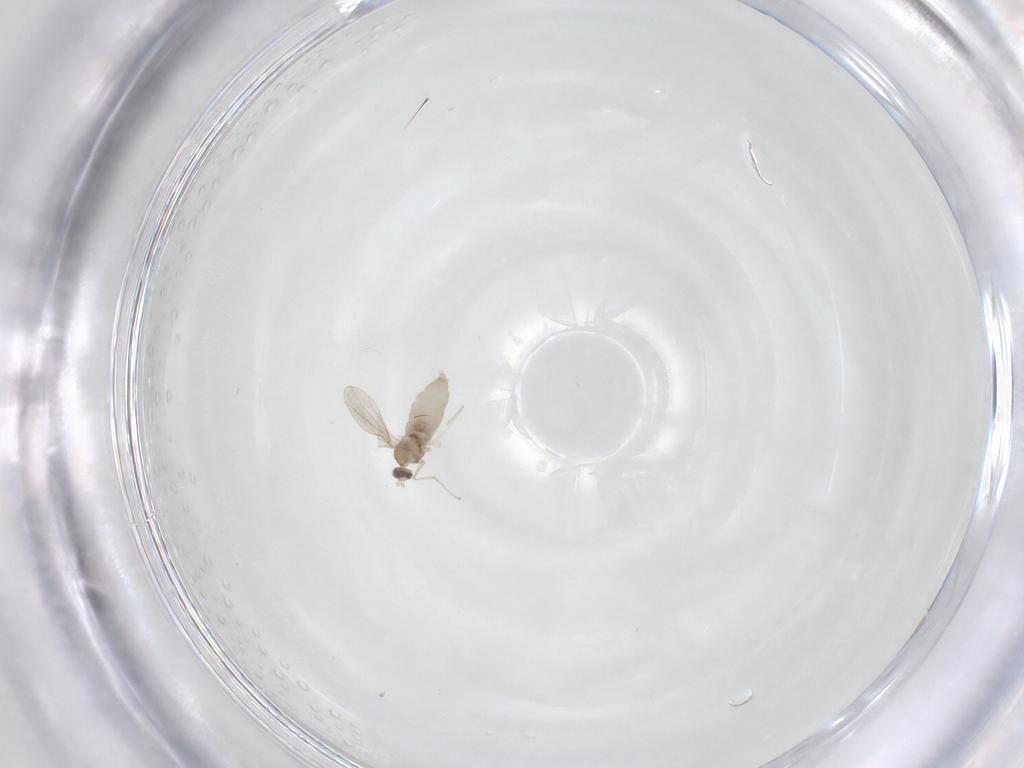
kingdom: Animalia
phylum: Arthropoda
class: Insecta
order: Diptera
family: Cecidomyiidae
